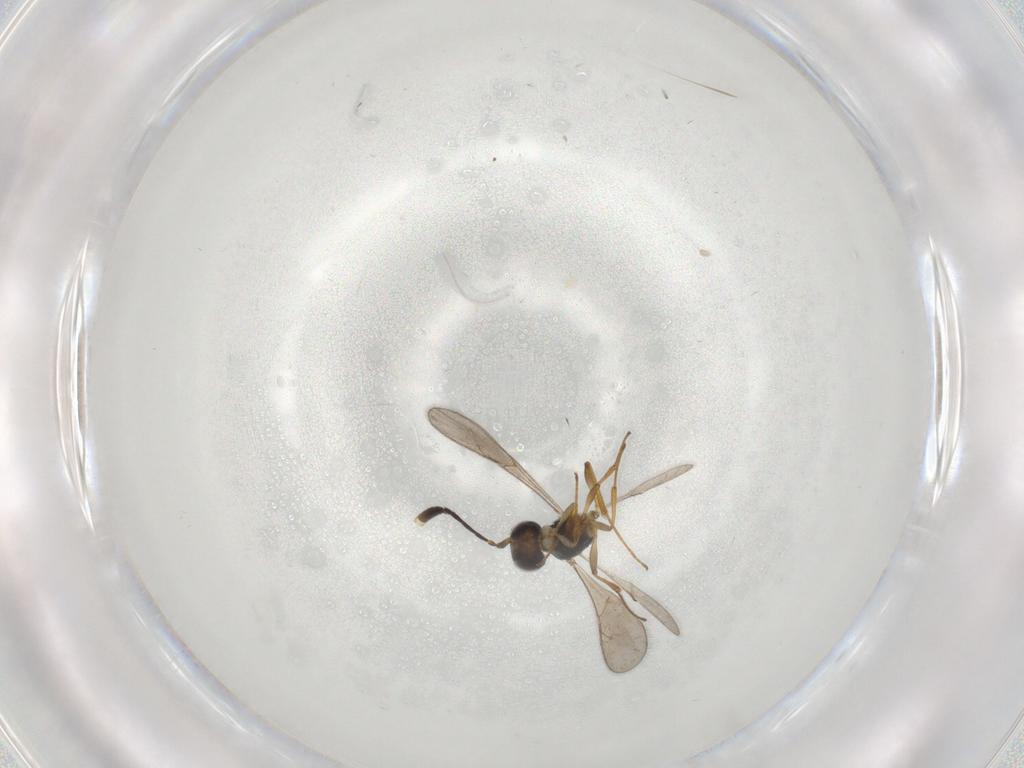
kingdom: Animalia
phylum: Arthropoda
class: Insecta
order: Hymenoptera
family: Scelionidae
